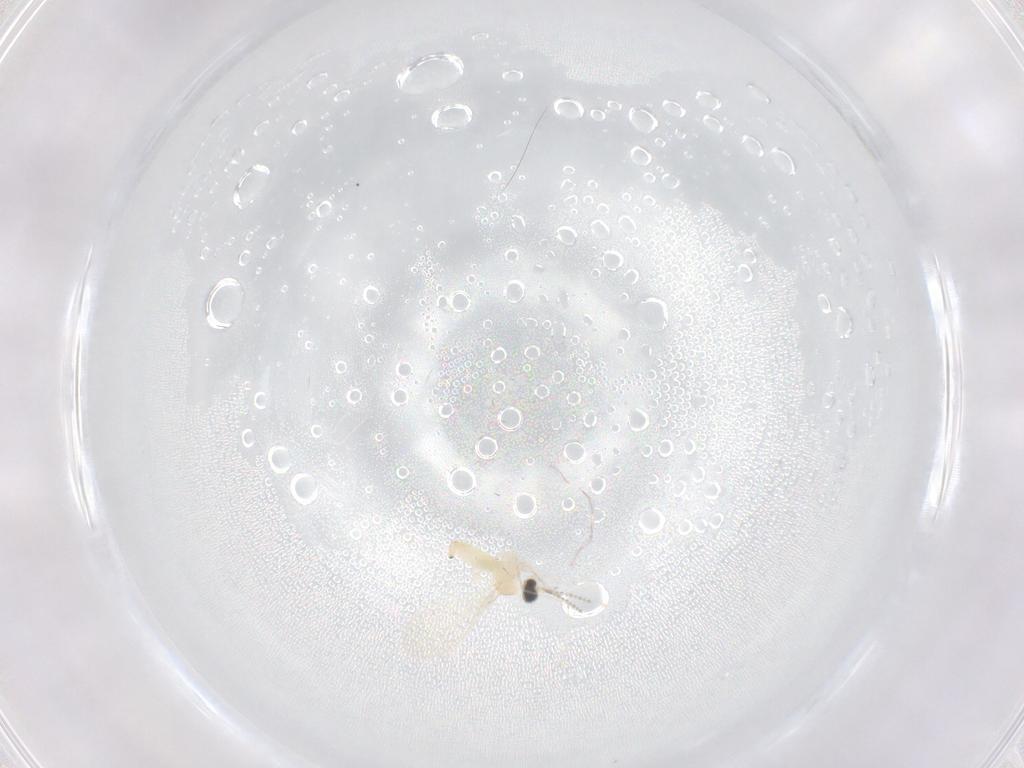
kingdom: Animalia
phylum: Arthropoda
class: Insecta
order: Diptera
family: Cecidomyiidae
